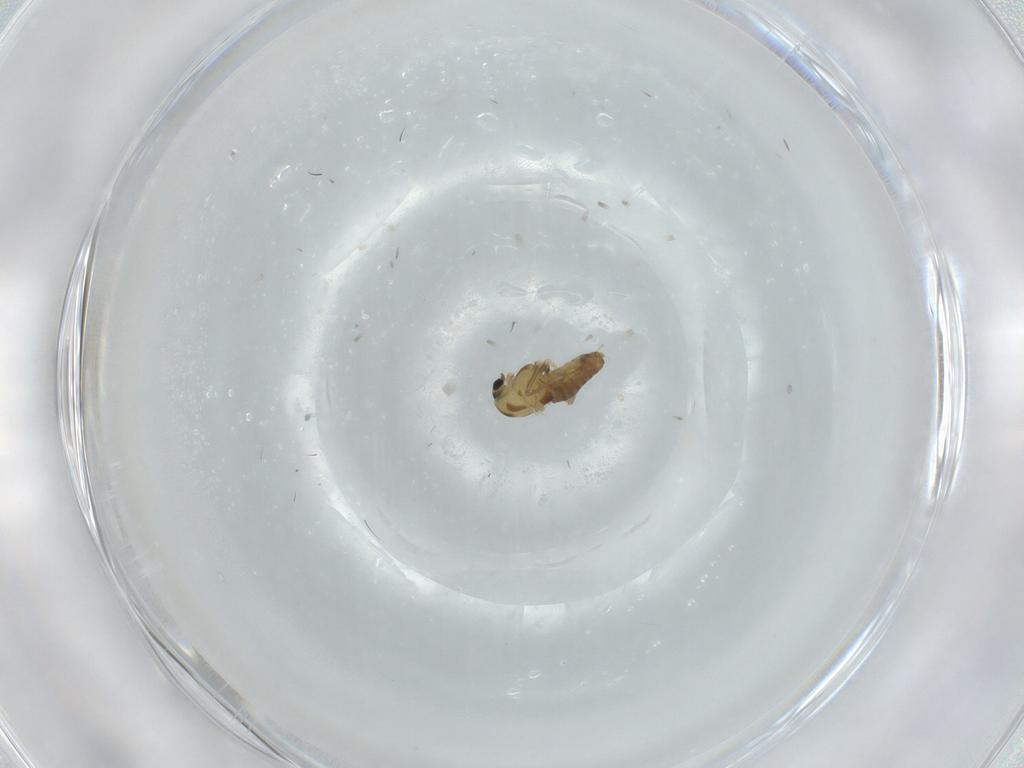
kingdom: Animalia
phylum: Arthropoda
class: Insecta
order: Diptera
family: Chironomidae
